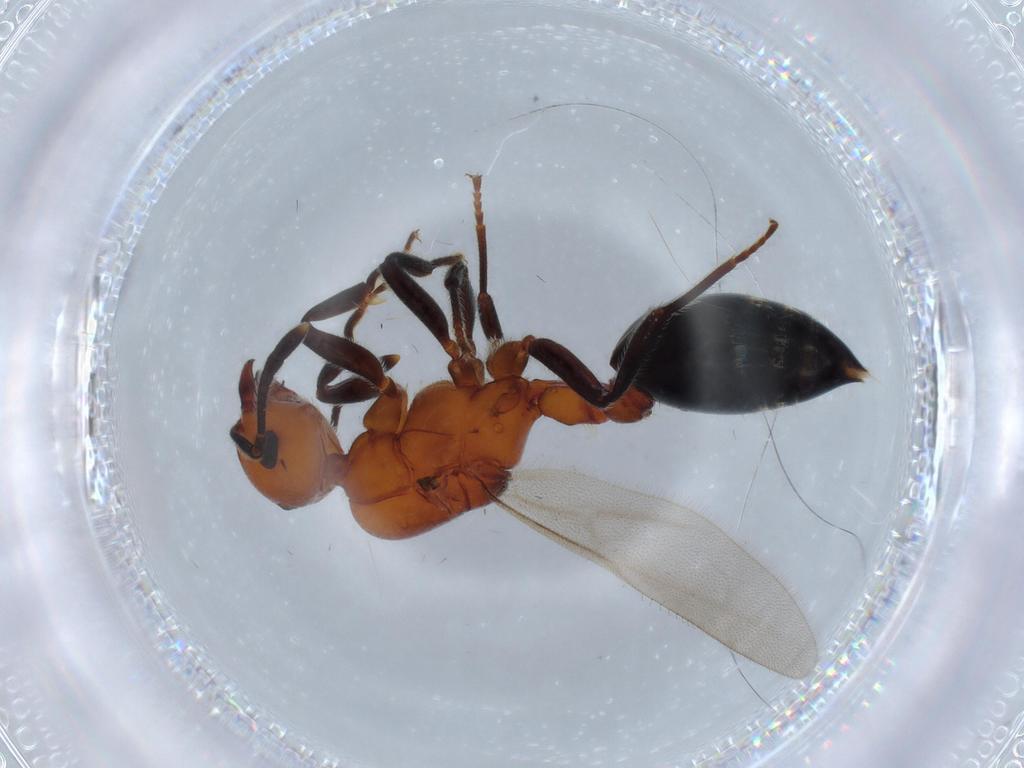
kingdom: Animalia
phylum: Arthropoda
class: Insecta
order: Hymenoptera
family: Formicidae
